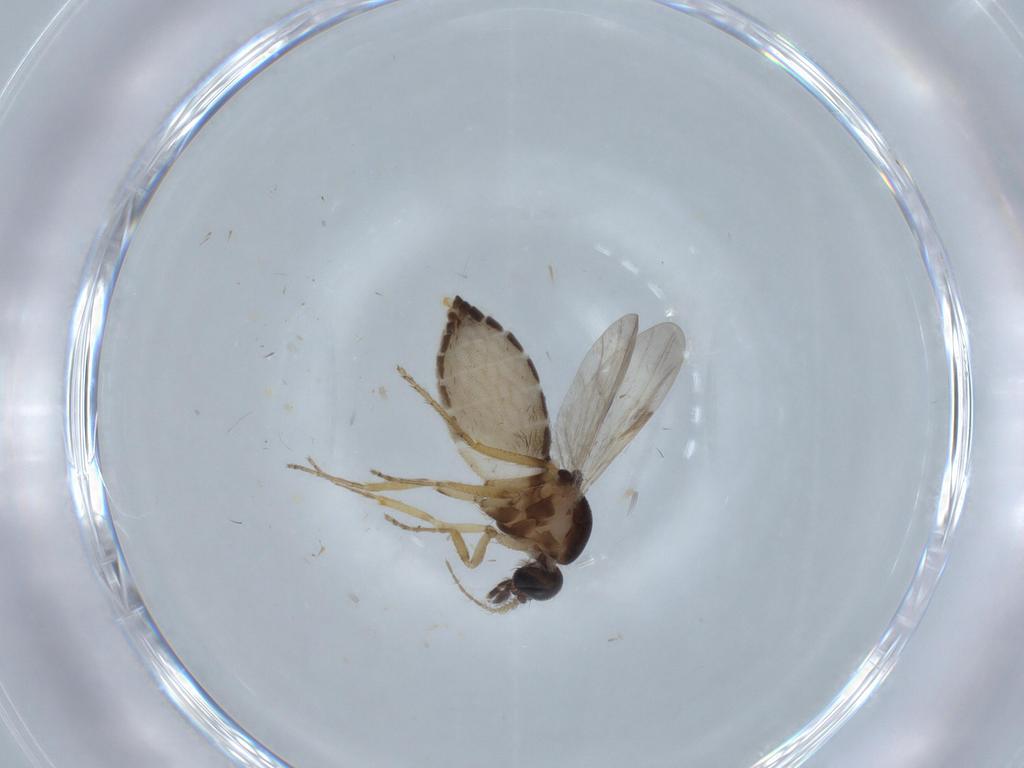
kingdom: Animalia
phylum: Arthropoda
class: Insecta
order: Diptera
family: Ceratopogonidae
